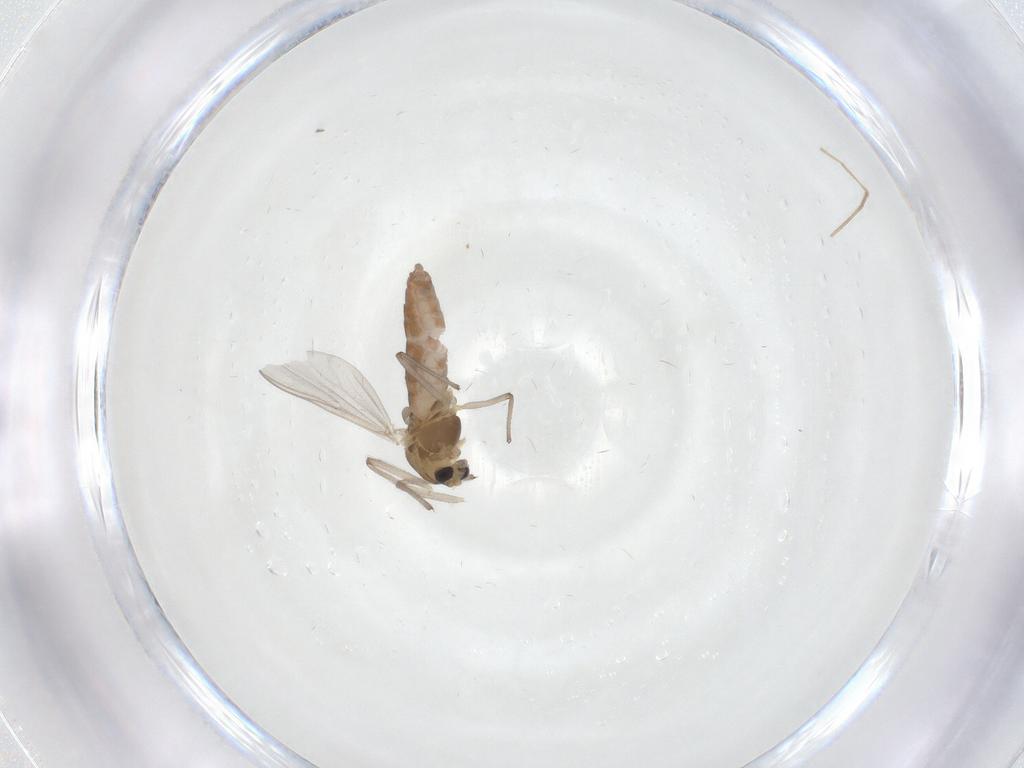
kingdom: Animalia
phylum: Arthropoda
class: Insecta
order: Diptera
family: Chironomidae
